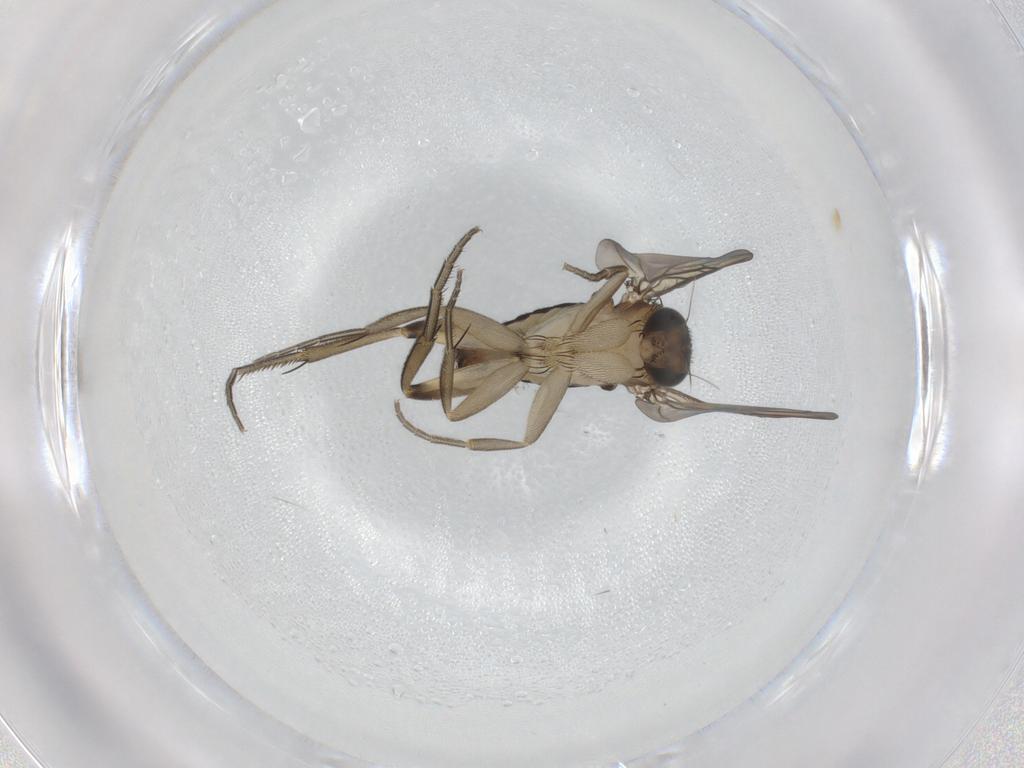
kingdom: Animalia
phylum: Arthropoda
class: Insecta
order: Diptera
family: Phoridae
